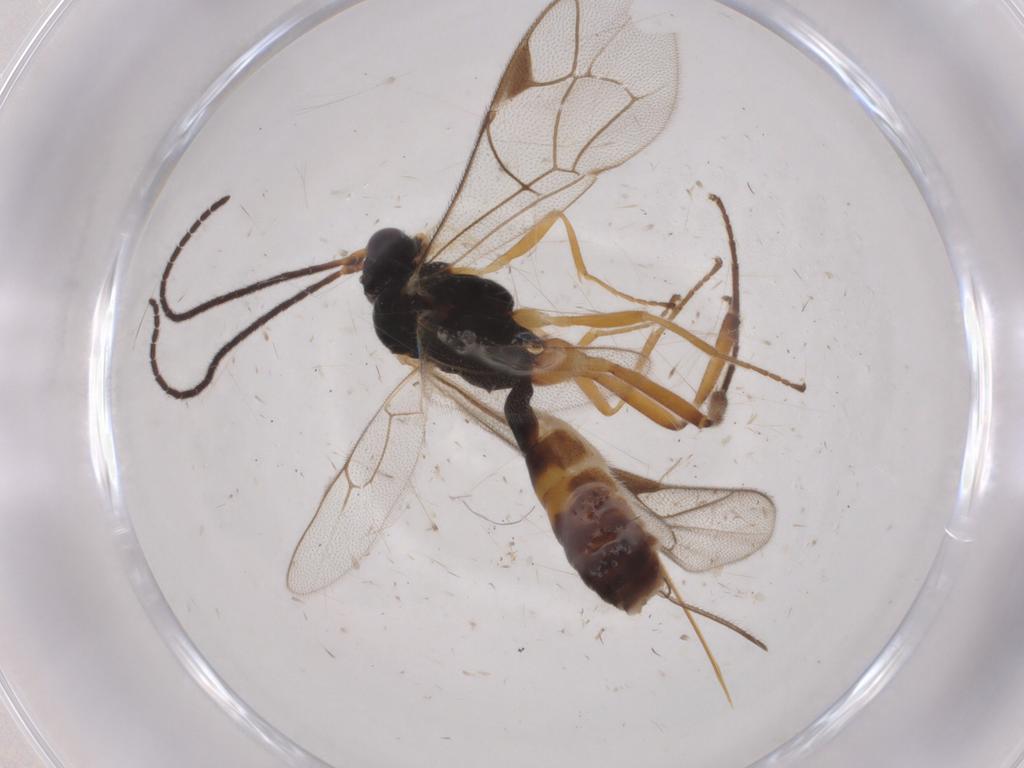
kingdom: Animalia
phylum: Arthropoda
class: Insecta
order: Hymenoptera
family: Ichneumonidae
